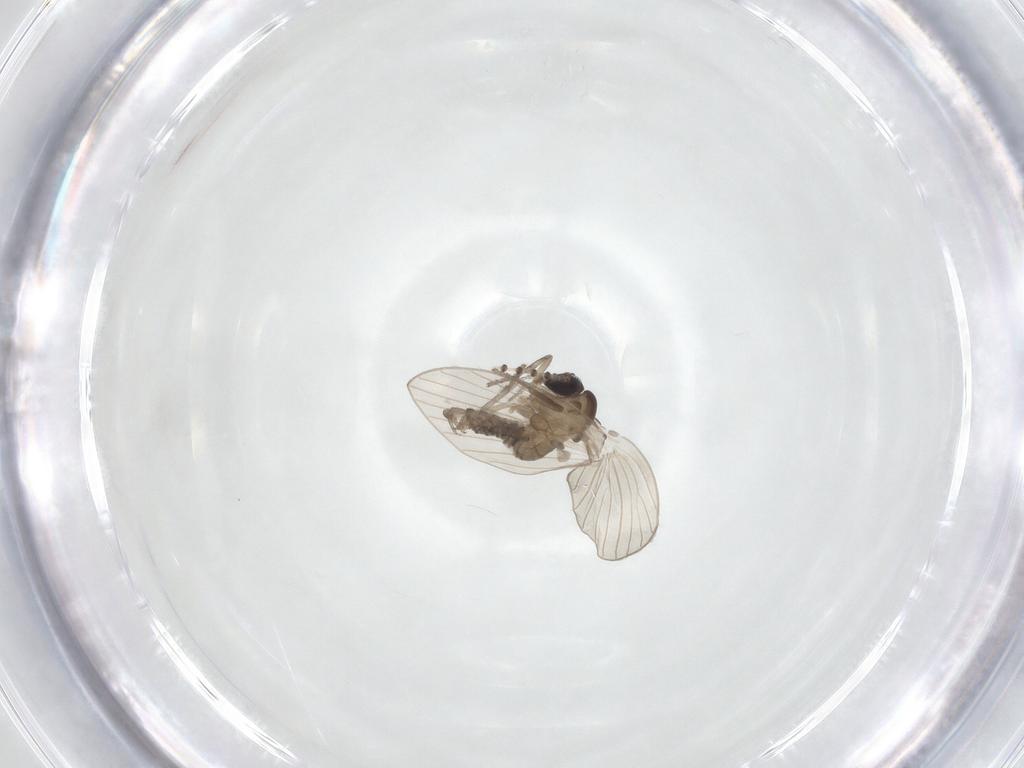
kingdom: Animalia
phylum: Arthropoda
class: Insecta
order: Diptera
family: Psychodidae
